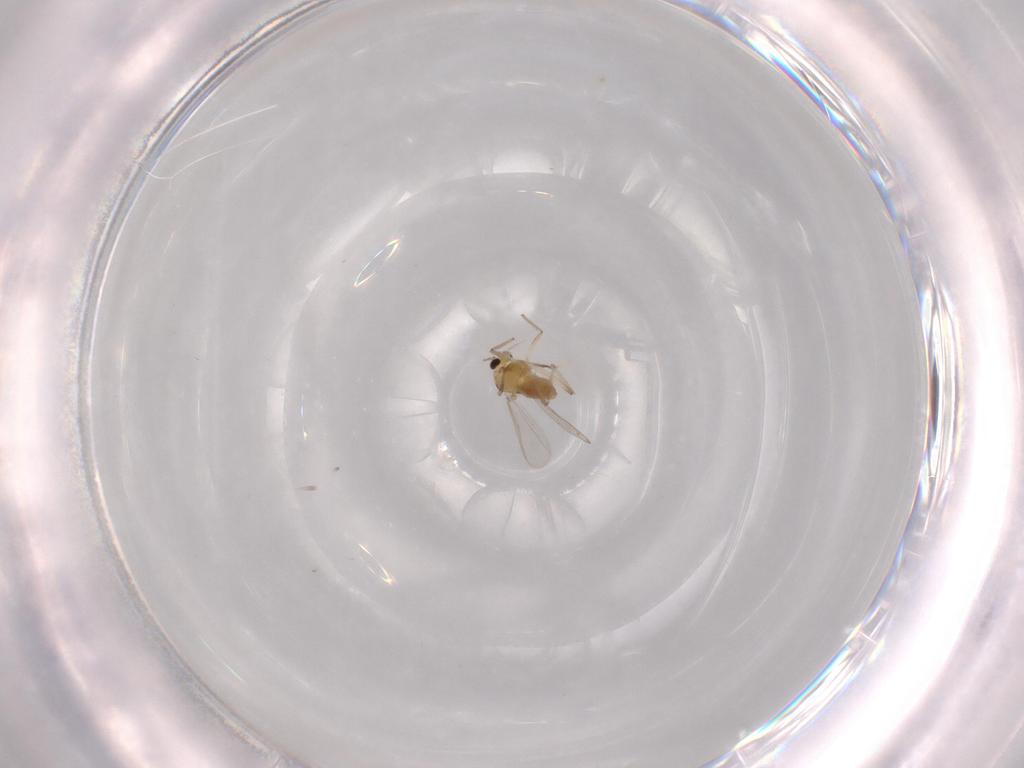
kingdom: Animalia
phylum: Arthropoda
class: Insecta
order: Diptera
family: Chironomidae
